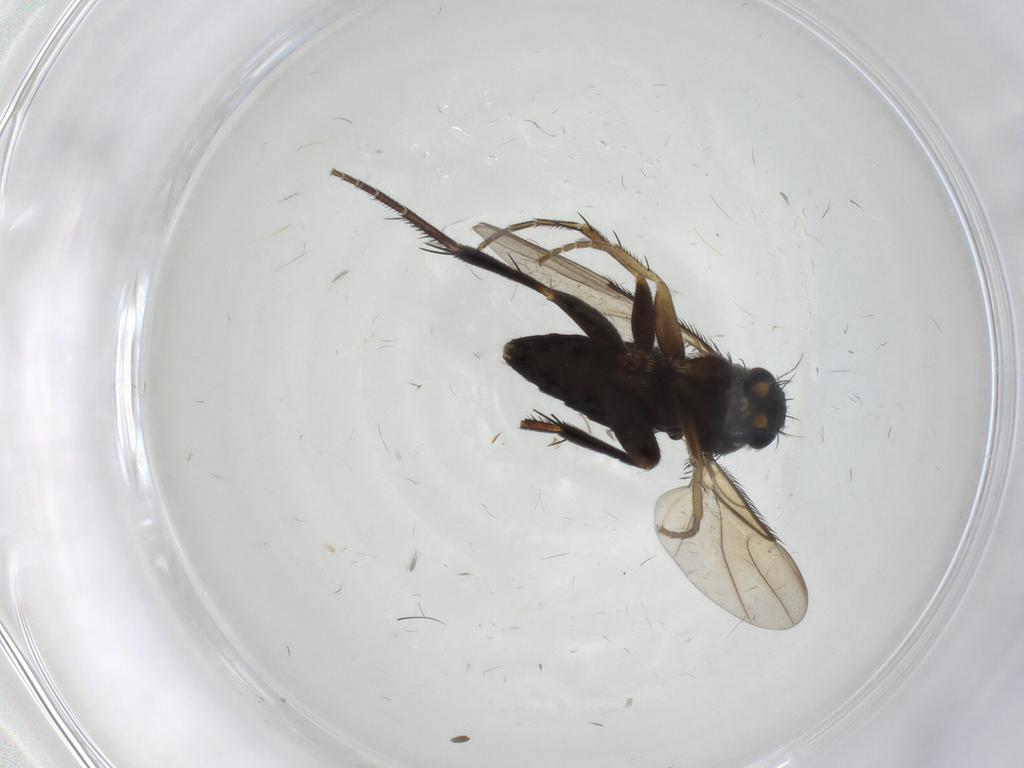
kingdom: Animalia
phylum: Arthropoda
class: Insecta
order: Diptera
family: Phoridae
